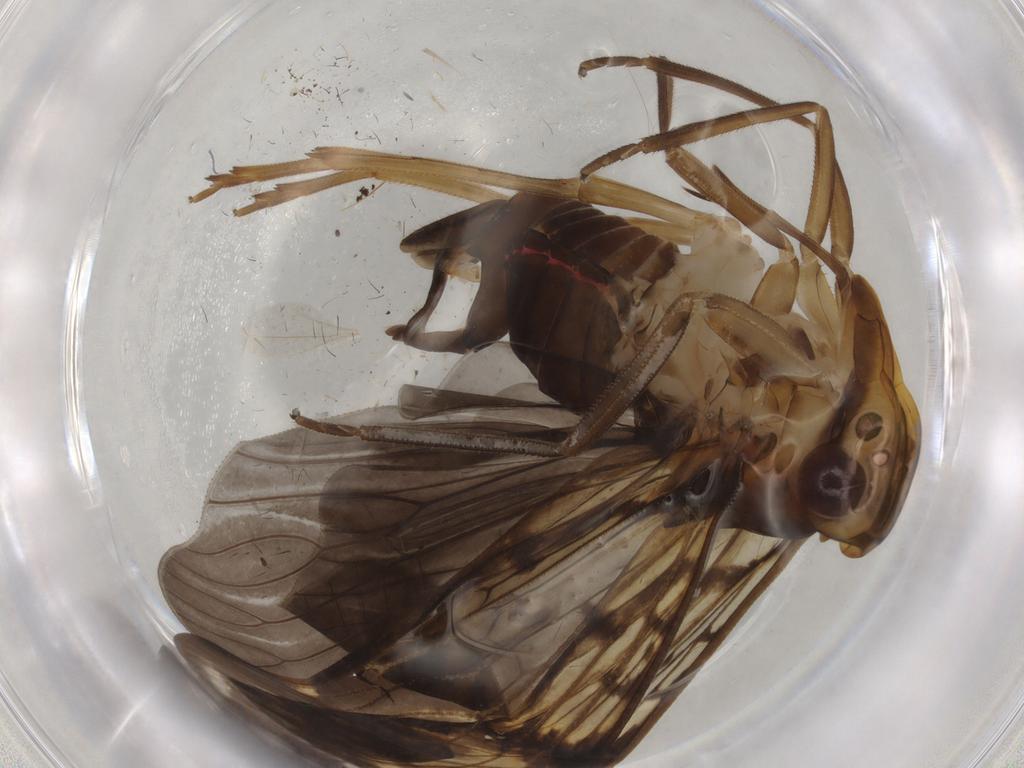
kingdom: Animalia
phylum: Arthropoda
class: Insecta
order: Hemiptera
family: Cixiidae
